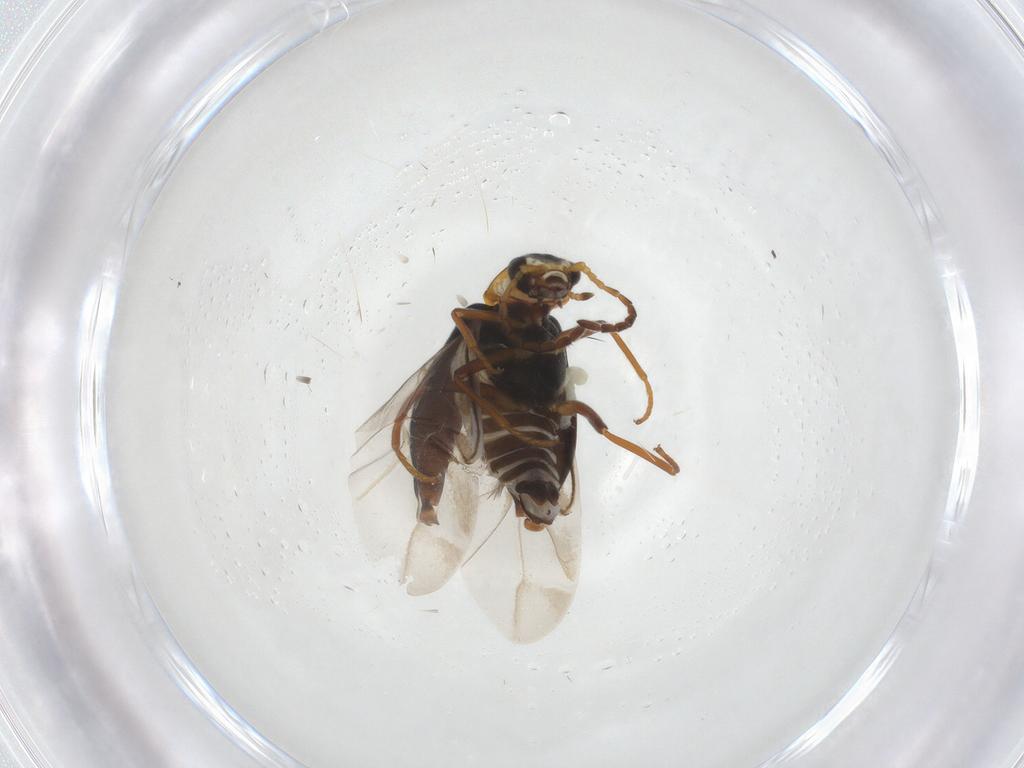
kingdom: Animalia
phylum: Arthropoda
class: Insecta
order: Coleoptera
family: Melyridae
